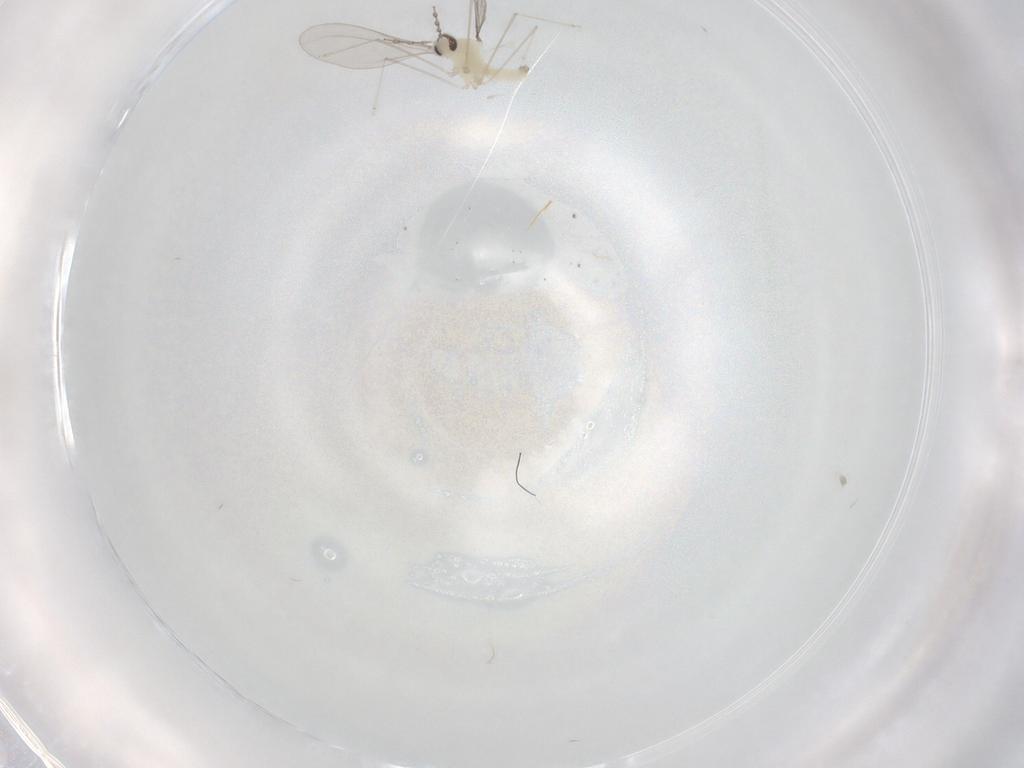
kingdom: Animalia
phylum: Arthropoda
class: Insecta
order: Diptera
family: Cecidomyiidae
